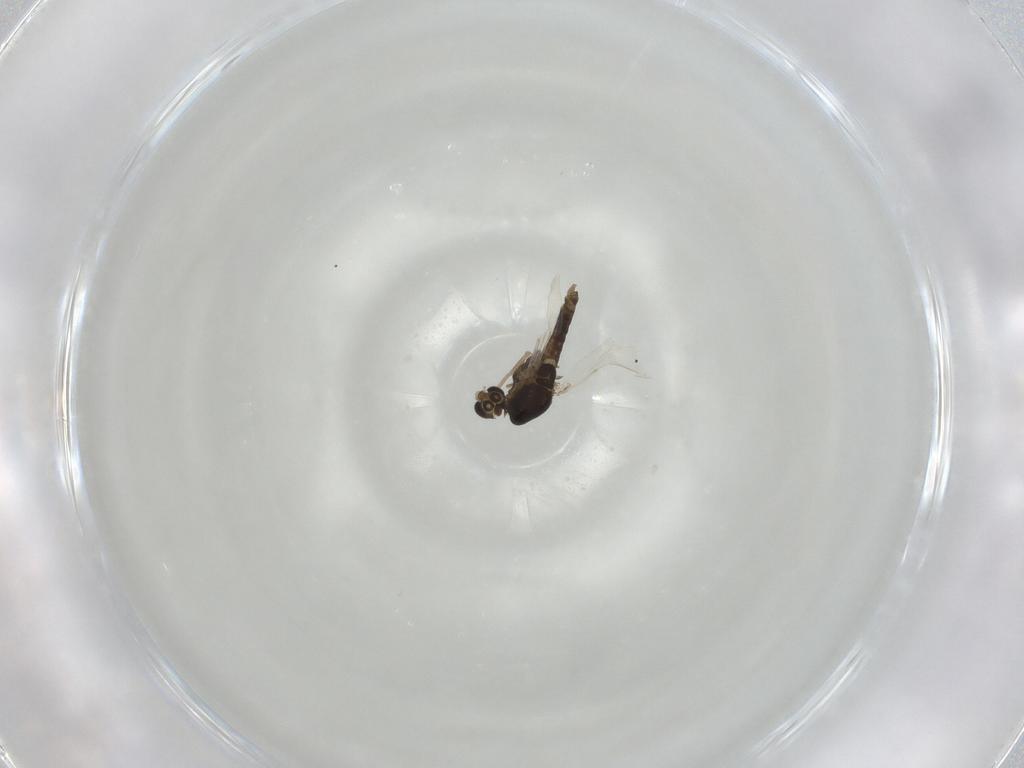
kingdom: Animalia
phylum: Arthropoda
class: Insecta
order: Diptera
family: Chironomidae
